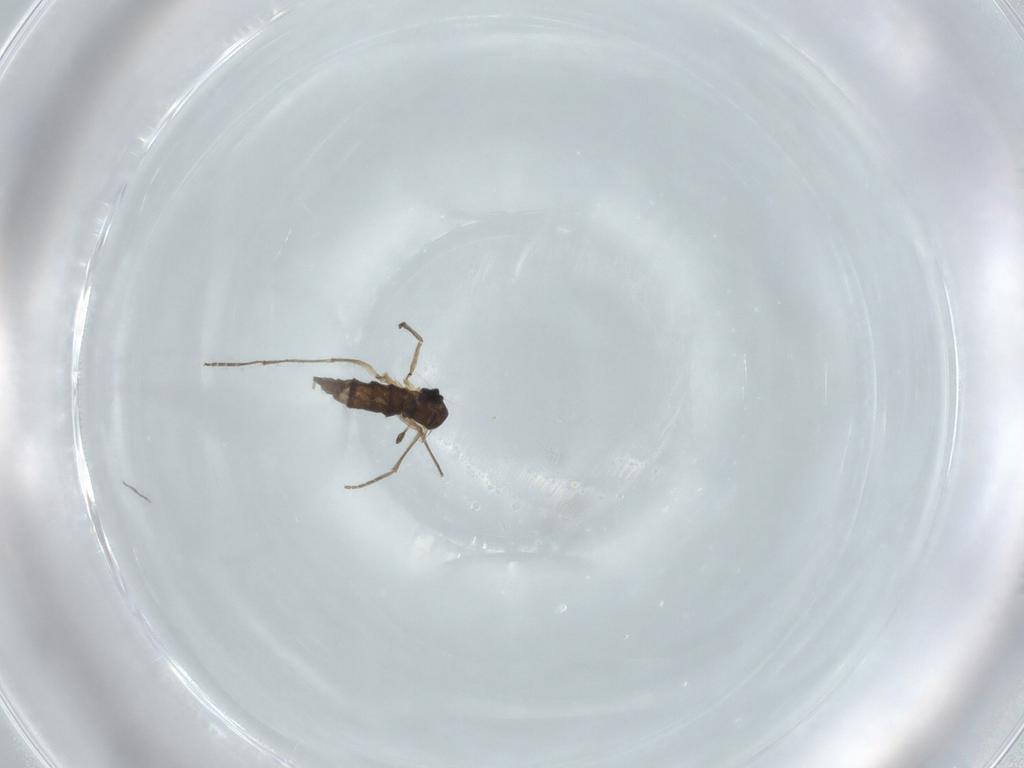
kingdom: Animalia
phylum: Arthropoda
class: Insecta
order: Diptera
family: Sciaridae
